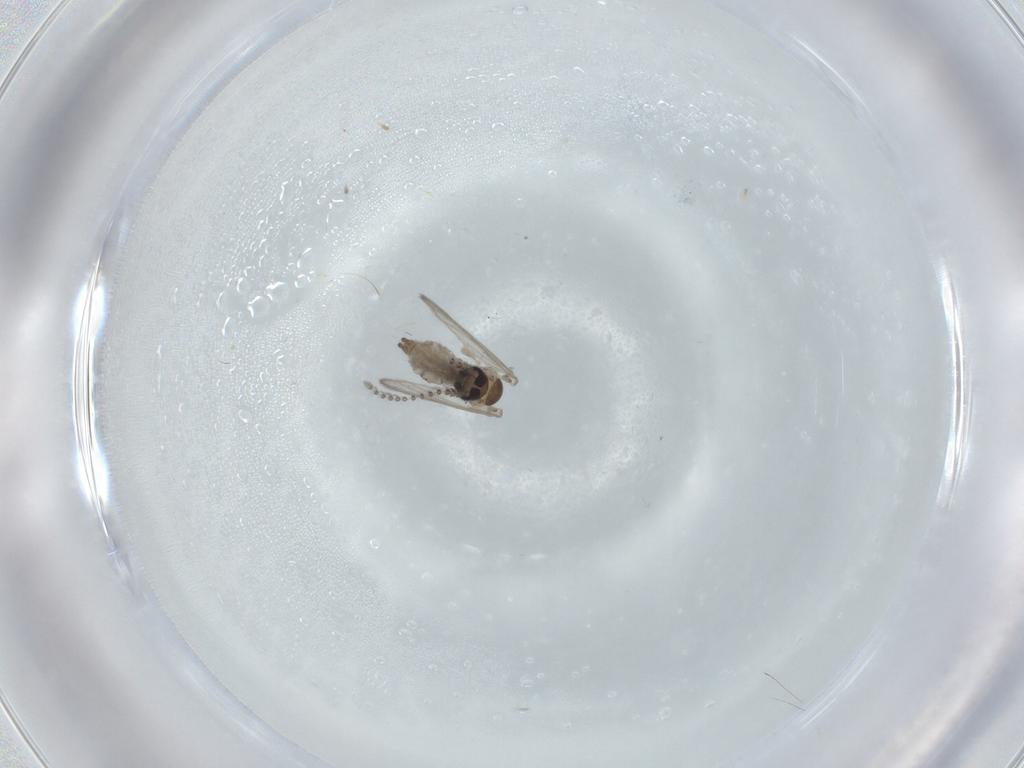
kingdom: Animalia
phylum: Arthropoda
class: Insecta
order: Diptera
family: Psychodidae
